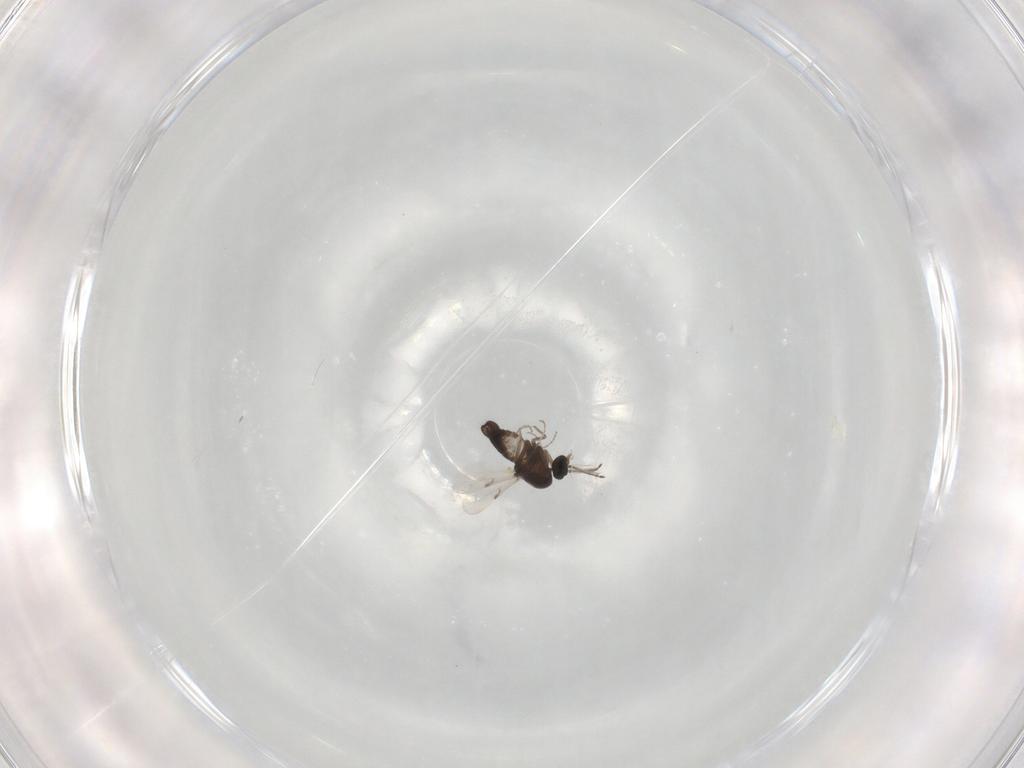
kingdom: Animalia
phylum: Arthropoda
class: Insecta
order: Diptera
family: Ceratopogonidae
